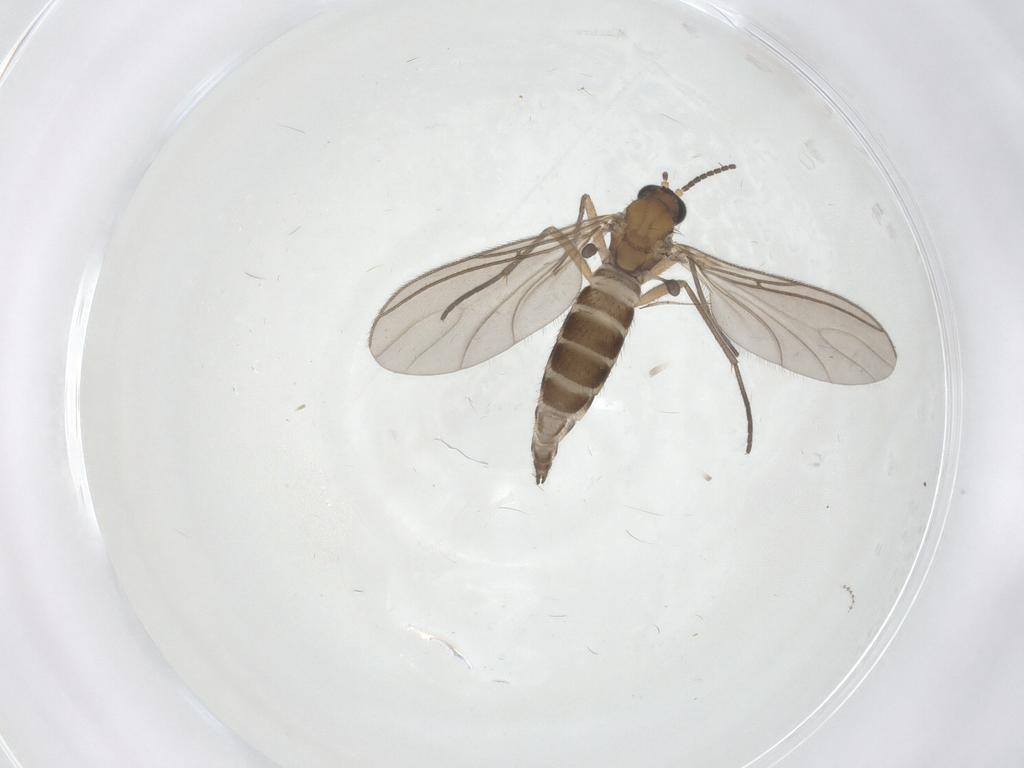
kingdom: Animalia
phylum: Arthropoda
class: Insecta
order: Diptera
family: Sciaridae
